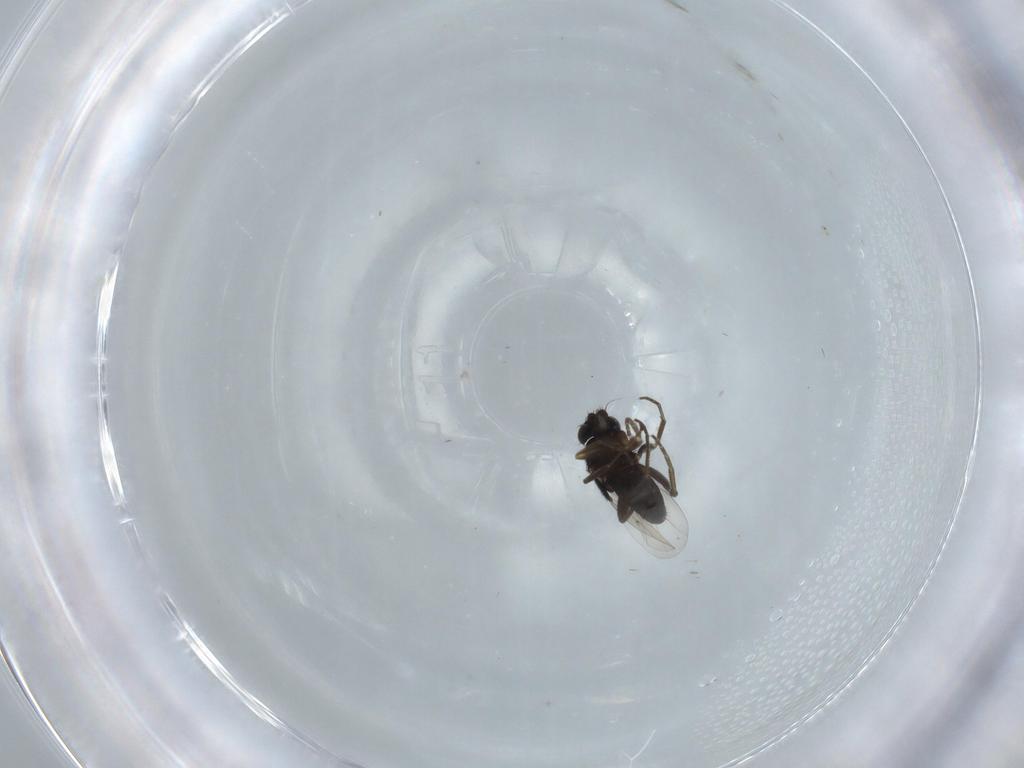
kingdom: Animalia
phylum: Arthropoda
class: Insecta
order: Diptera
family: Phoridae
